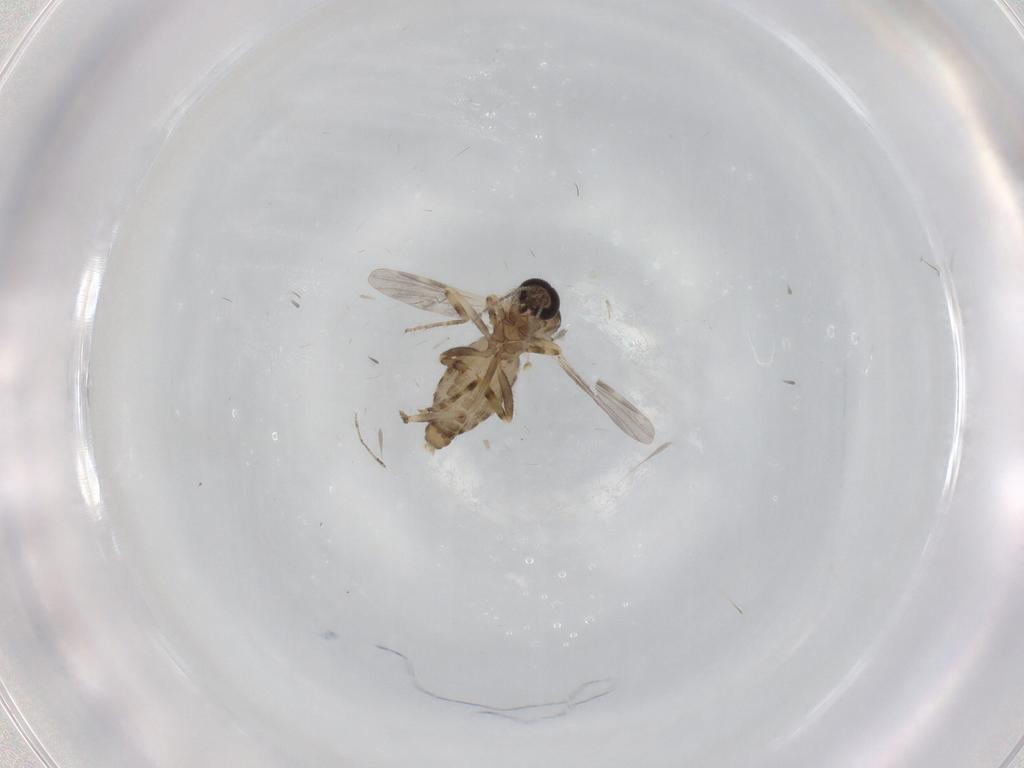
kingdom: Animalia
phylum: Arthropoda
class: Insecta
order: Diptera
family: Ceratopogonidae
